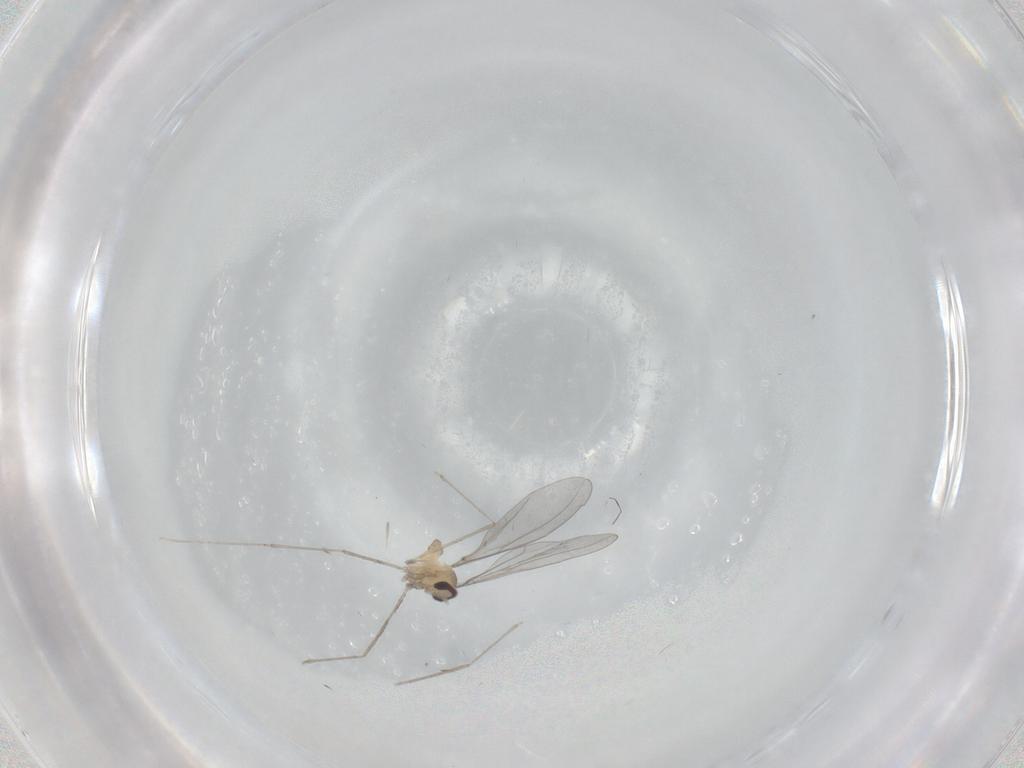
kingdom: Animalia
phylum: Arthropoda
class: Insecta
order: Diptera
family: Cecidomyiidae
